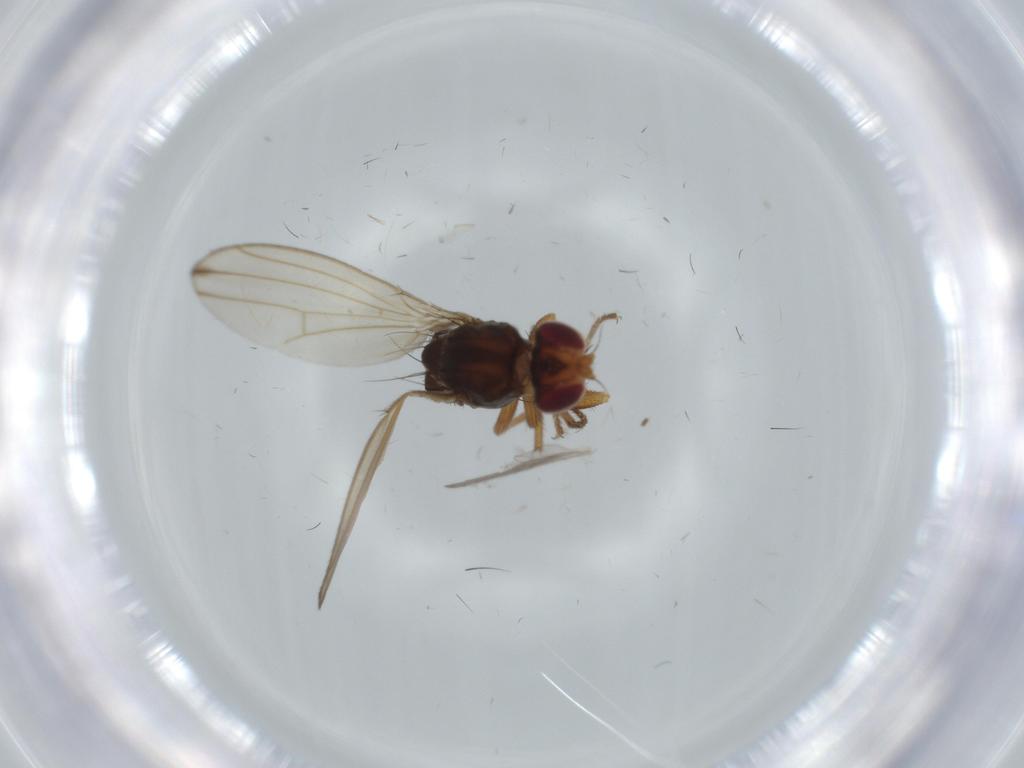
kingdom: Animalia
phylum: Arthropoda
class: Insecta
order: Diptera
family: Drosophilidae
